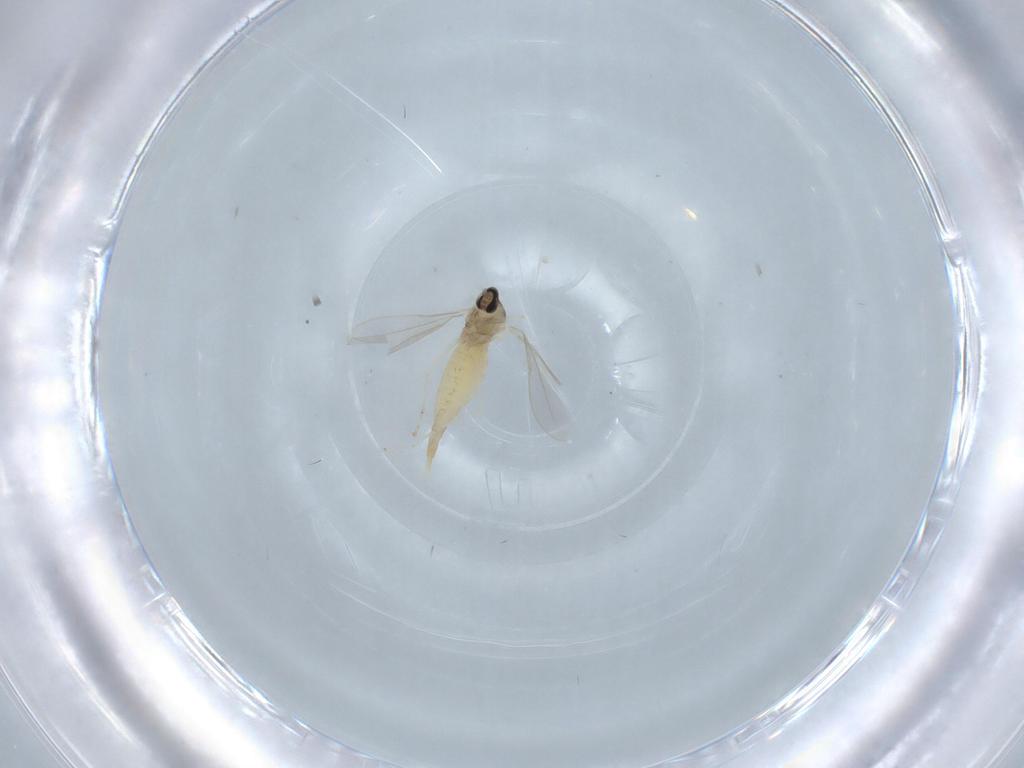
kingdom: Animalia
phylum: Arthropoda
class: Insecta
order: Diptera
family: Cecidomyiidae
